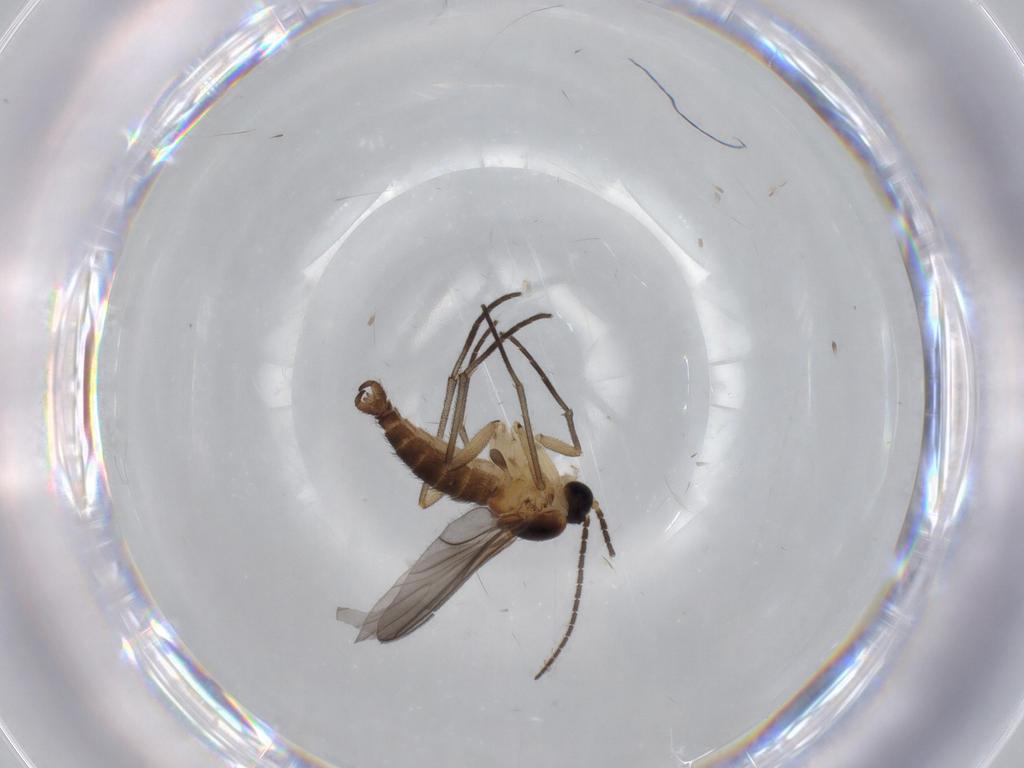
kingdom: Animalia
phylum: Arthropoda
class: Insecta
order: Diptera
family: Sciaridae
